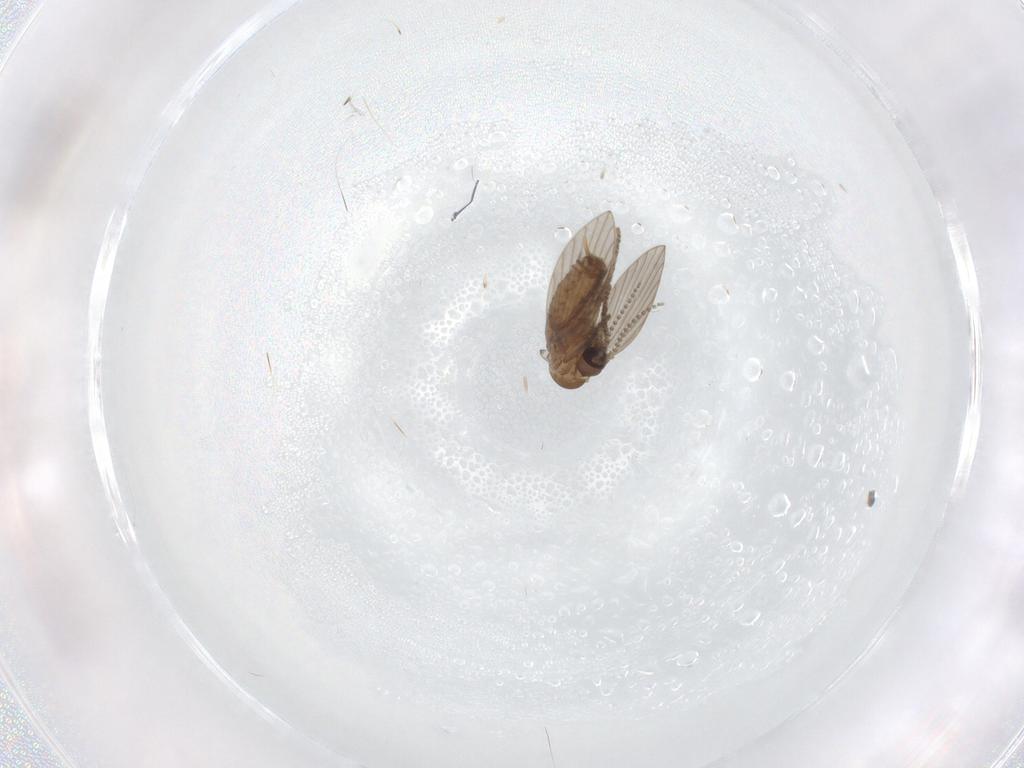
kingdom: Animalia
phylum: Arthropoda
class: Insecta
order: Diptera
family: Psychodidae
